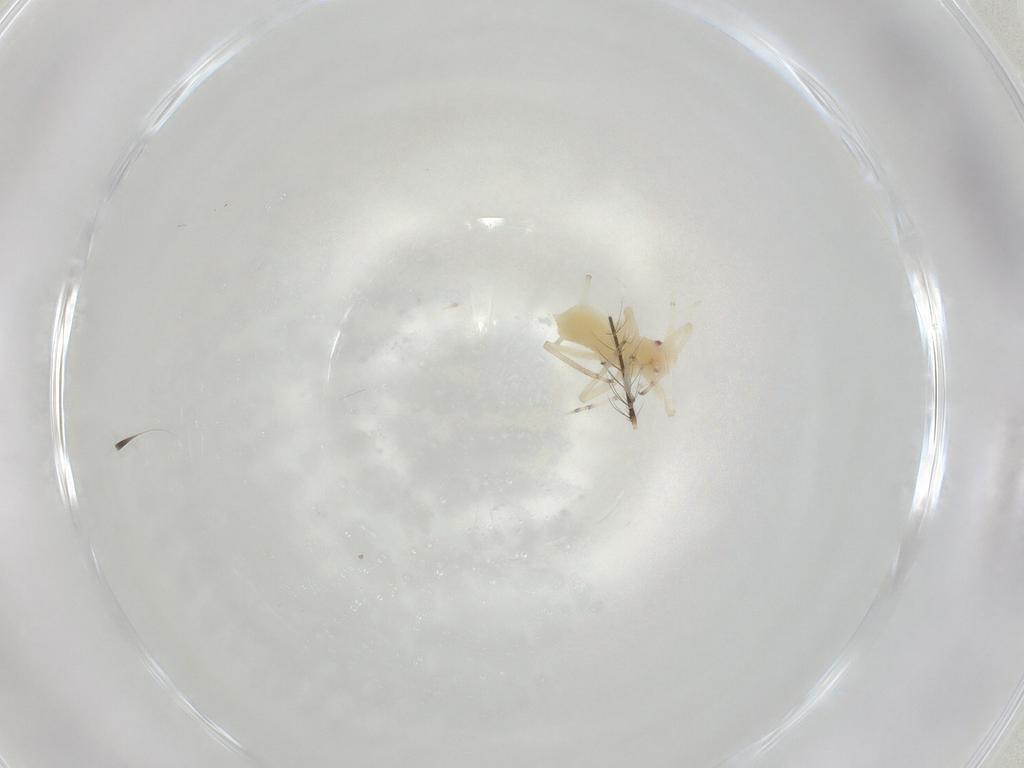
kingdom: Animalia
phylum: Arthropoda
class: Insecta
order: Hemiptera
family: Aphididae
